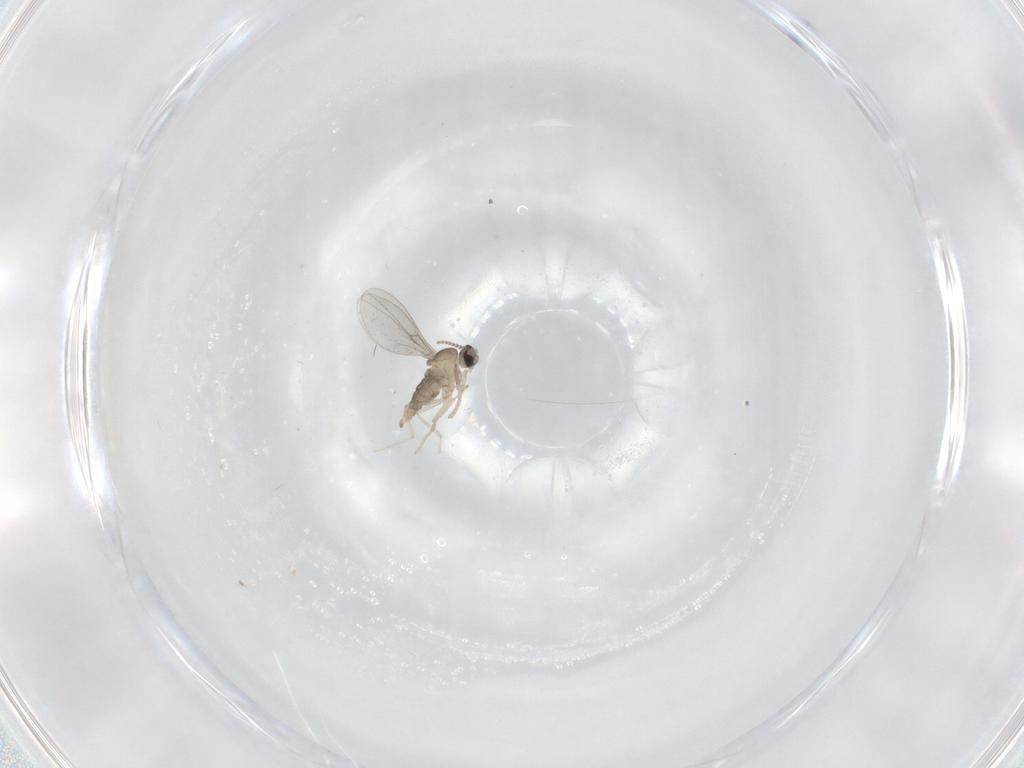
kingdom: Animalia
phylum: Arthropoda
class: Insecta
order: Diptera
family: Cecidomyiidae
